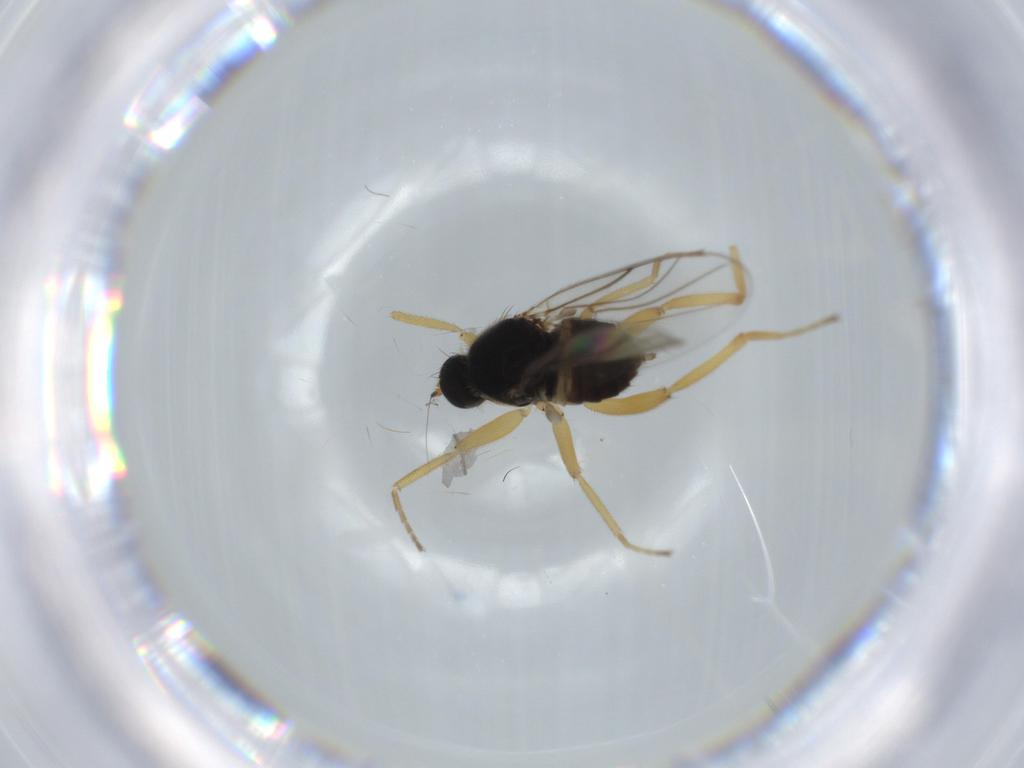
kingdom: Animalia
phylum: Arthropoda
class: Insecta
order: Diptera
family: Hybotidae
